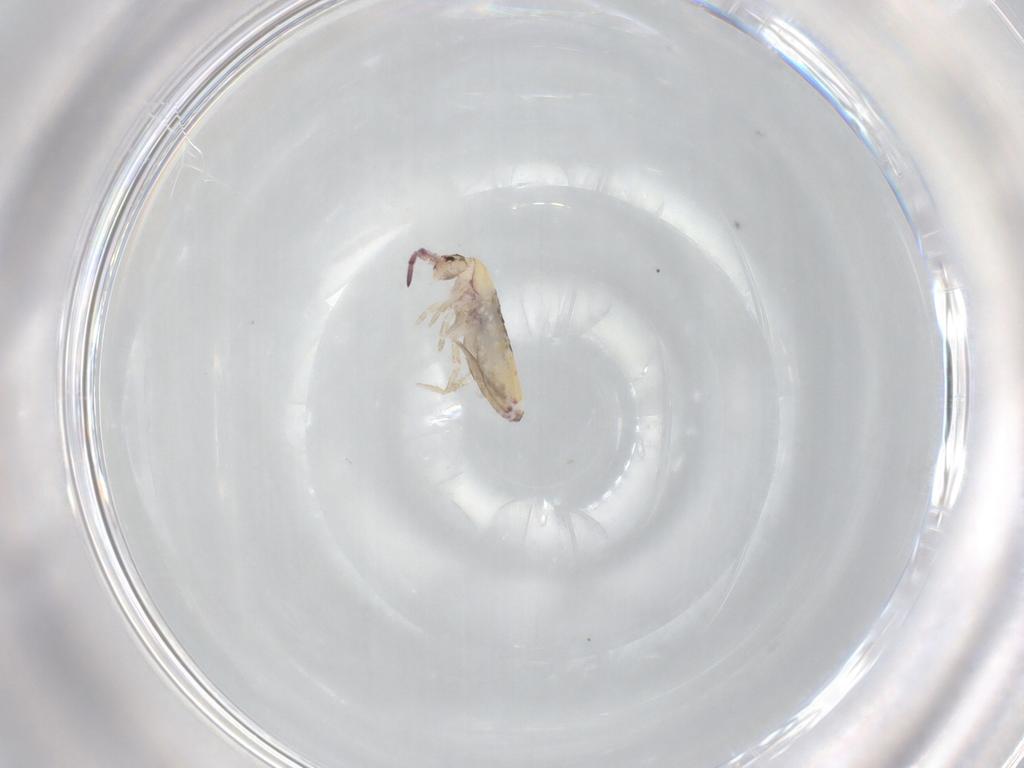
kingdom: Animalia
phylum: Arthropoda
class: Collembola
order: Entomobryomorpha
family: Entomobryidae
